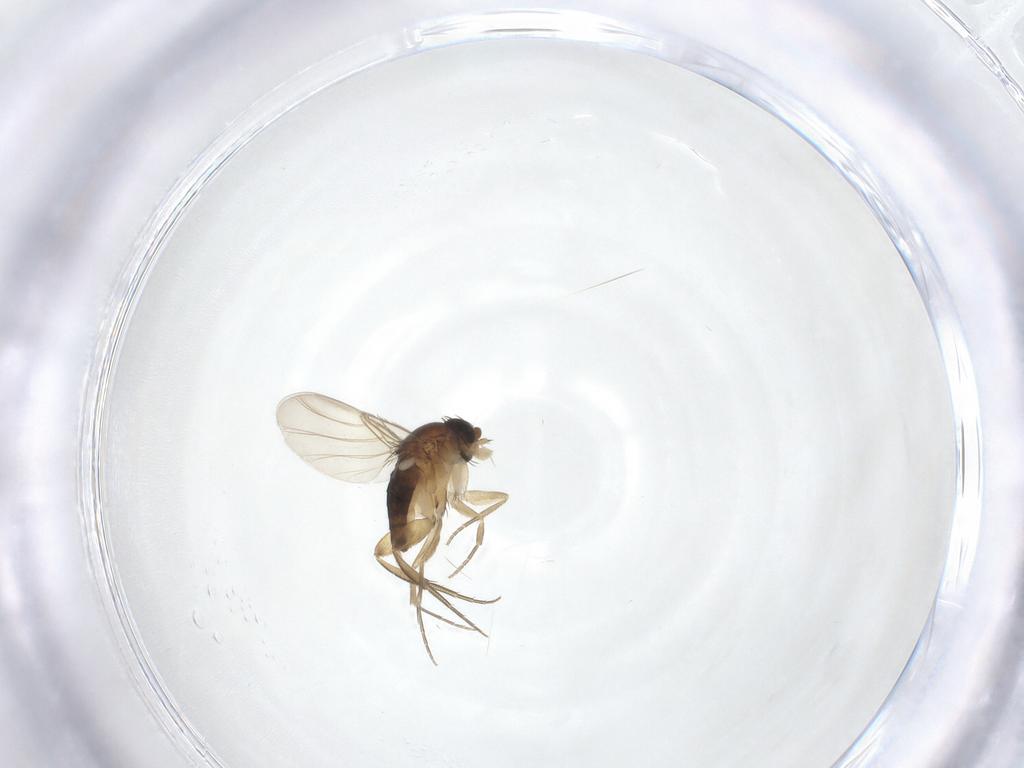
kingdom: Animalia
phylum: Arthropoda
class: Insecta
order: Diptera
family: Phoridae
